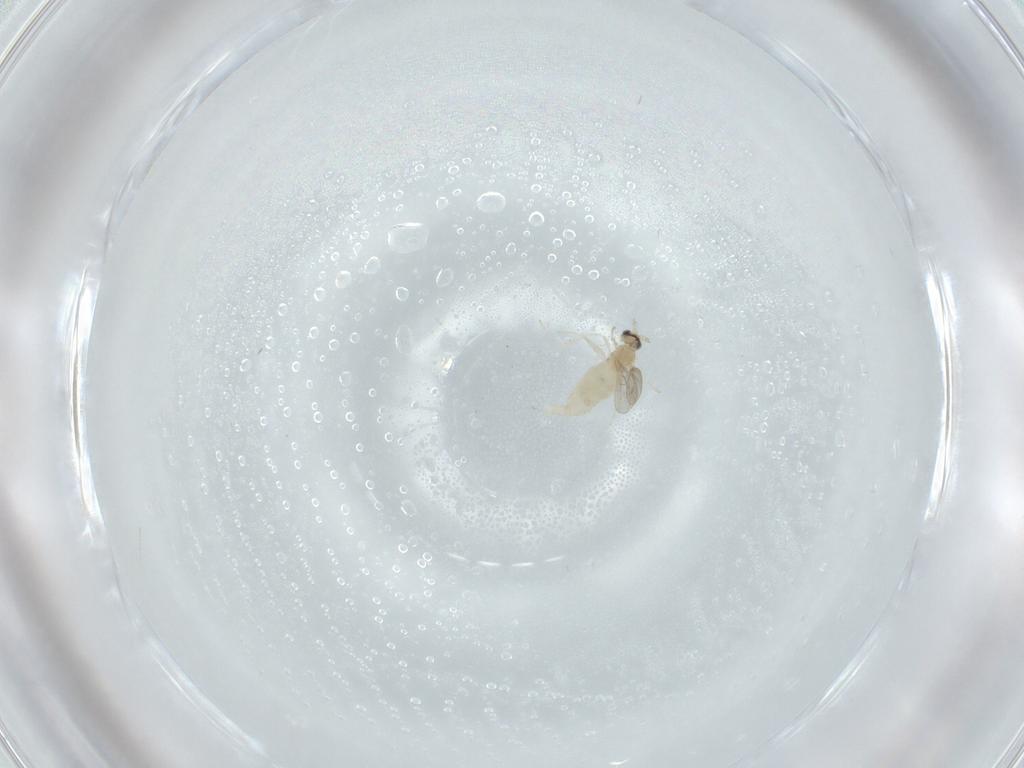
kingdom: Animalia
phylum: Arthropoda
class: Insecta
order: Diptera
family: Cecidomyiidae
